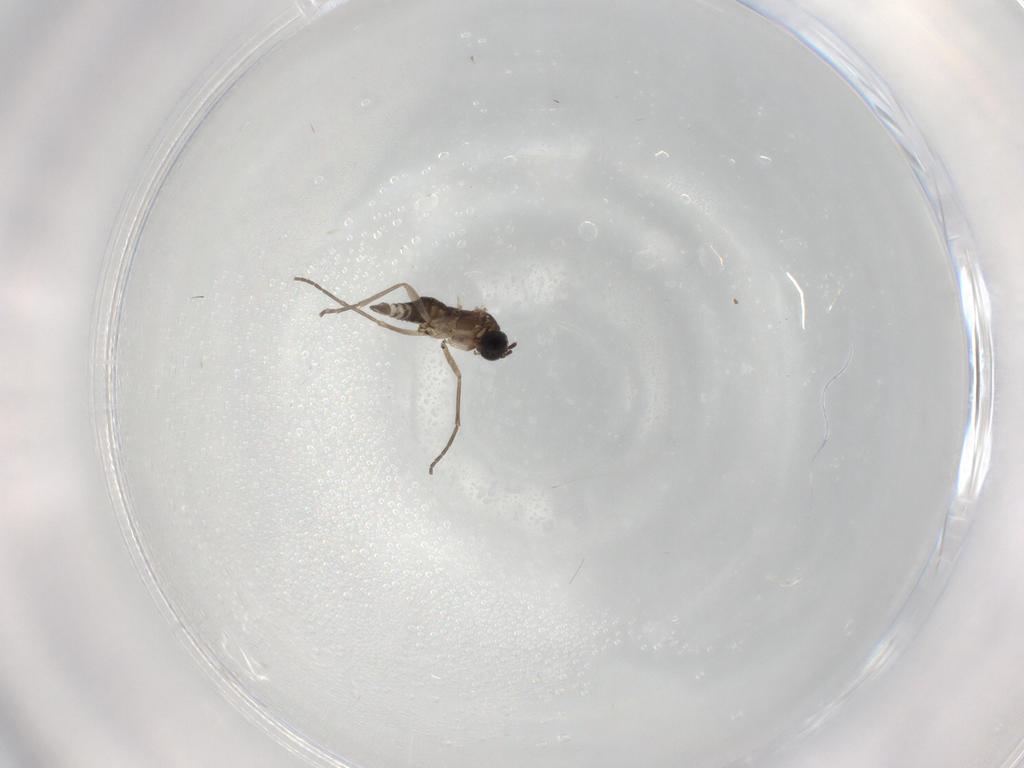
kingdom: Animalia
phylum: Arthropoda
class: Insecta
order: Diptera
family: Sciaridae
